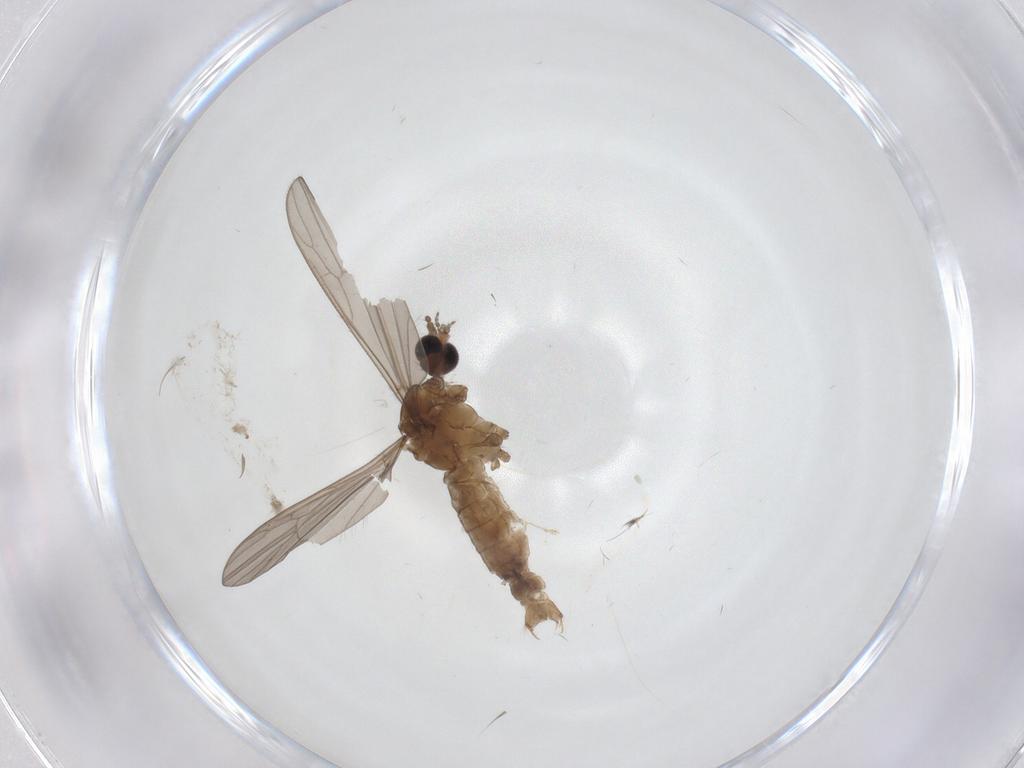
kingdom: Animalia
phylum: Arthropoda
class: Insecta
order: Diptera
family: Limoniidae
